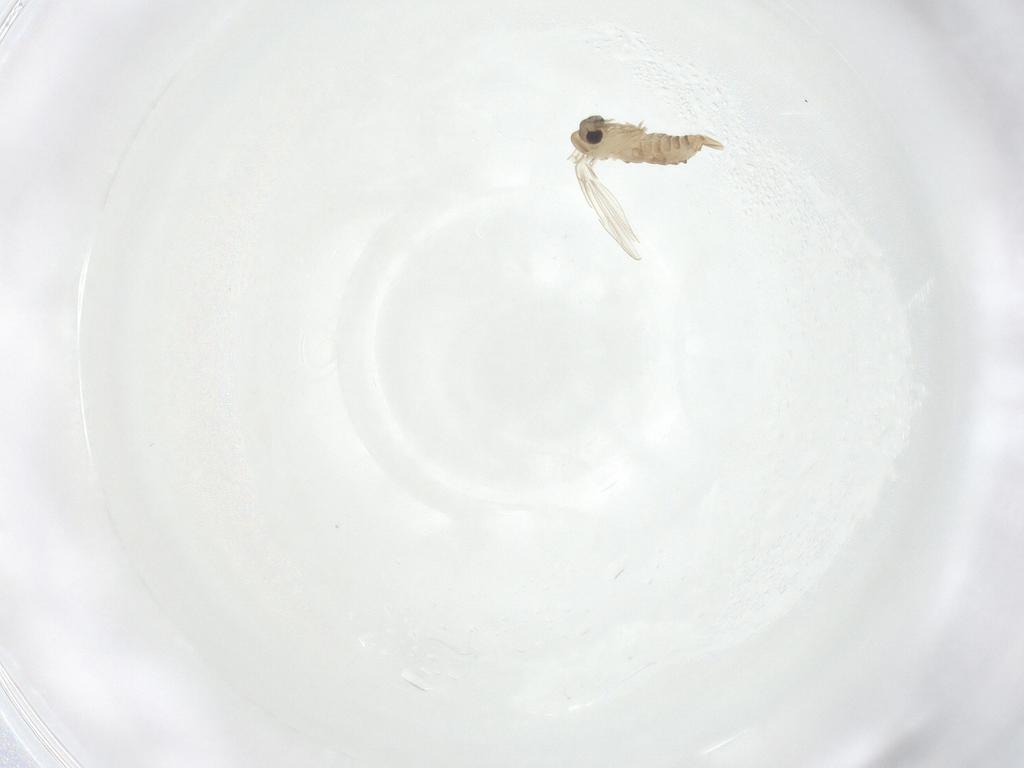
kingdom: Animalia
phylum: Arthropoda
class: Insecta
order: Diptera
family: Psychodidae
